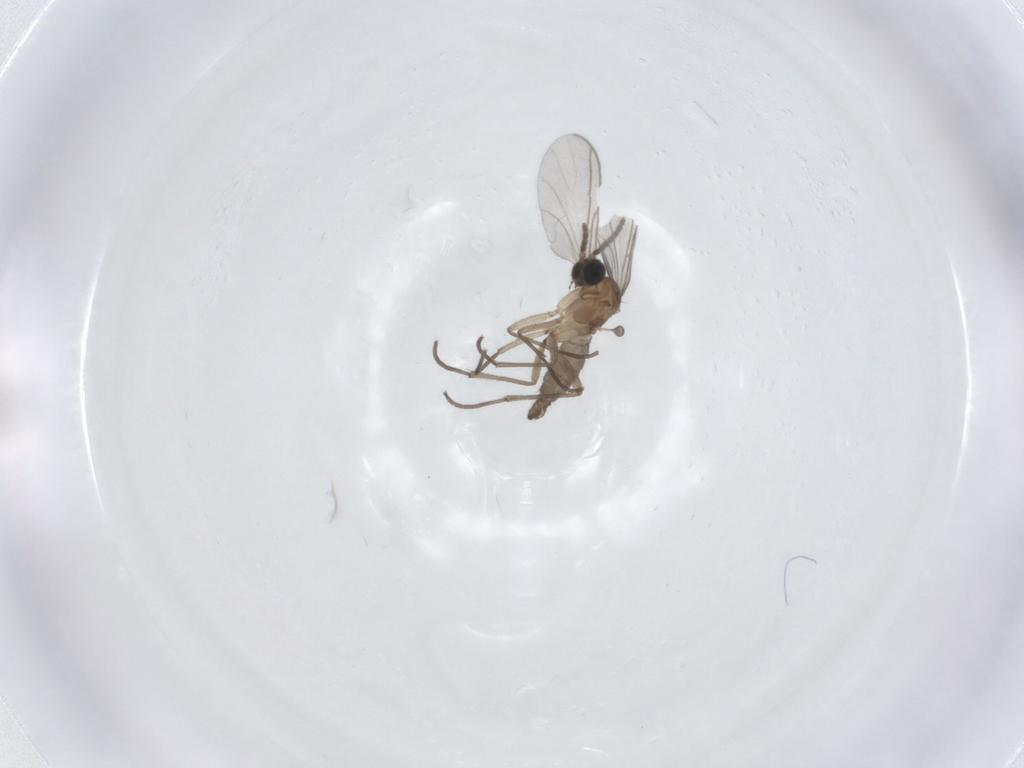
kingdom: Animalia
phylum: Arthropoda
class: Insecta
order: Diptera
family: Sciaridae
